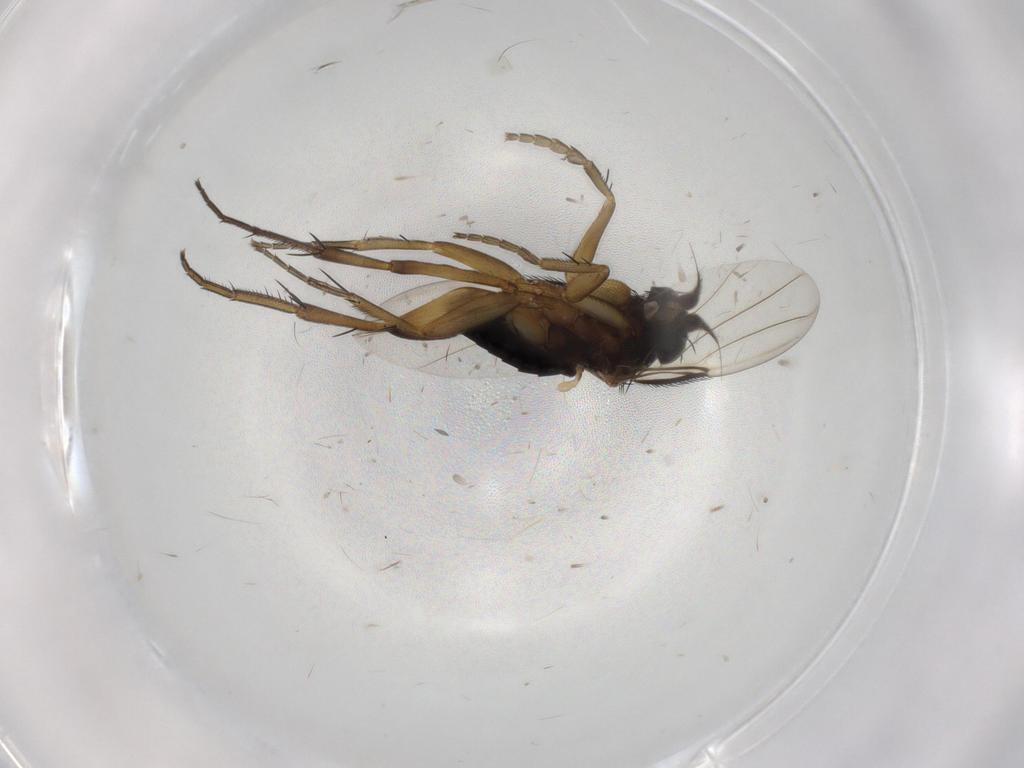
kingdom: Animalia
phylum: Arthropoda
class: Insecta
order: Diptera
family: Phoridae
